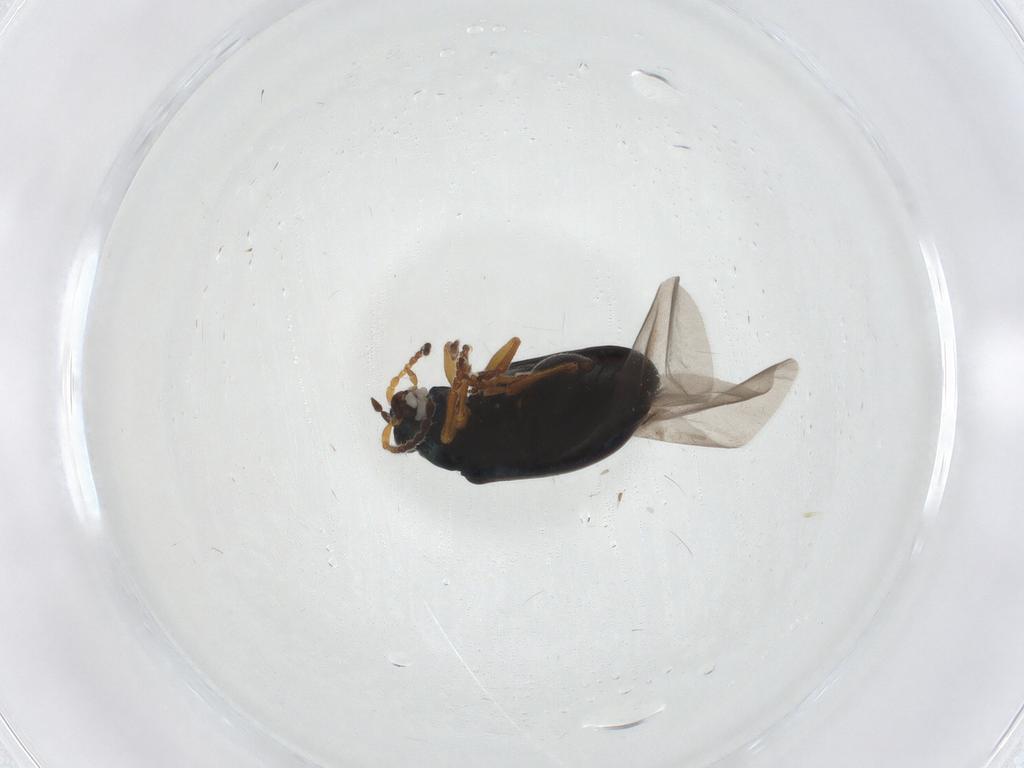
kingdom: Animalia
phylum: Arthropoda
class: Insecta
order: Coleoptera
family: Chrysomelidae
